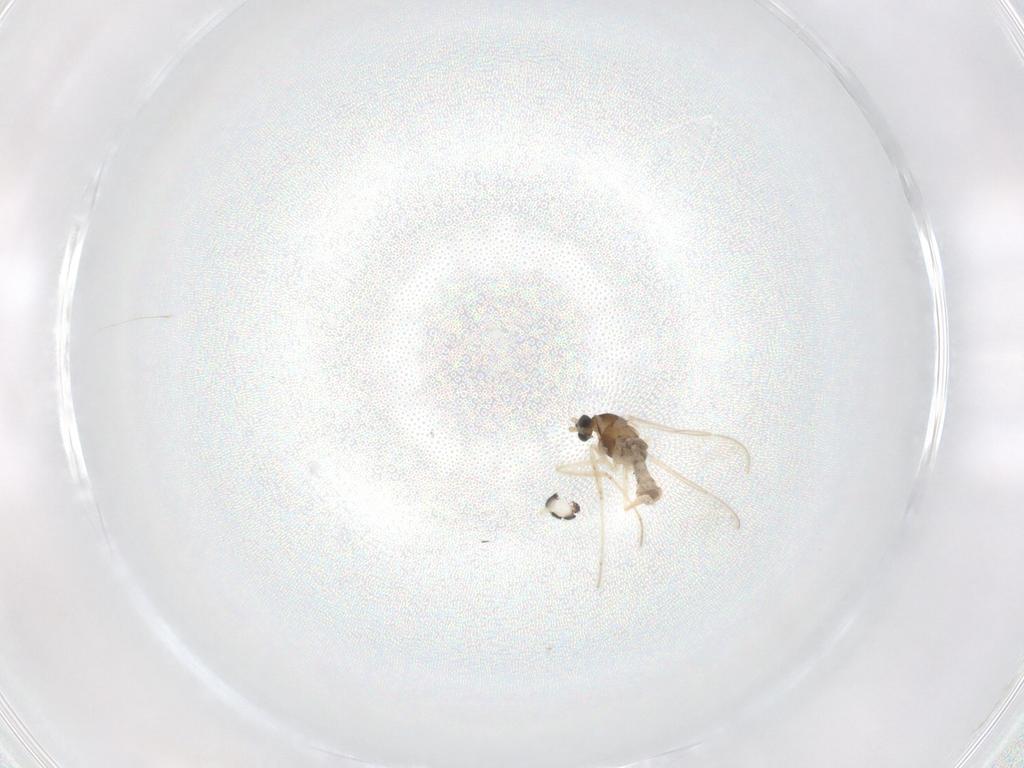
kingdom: Animalia
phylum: Arthropoda
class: Insecta
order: Diptera
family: Cecidomyiidae
